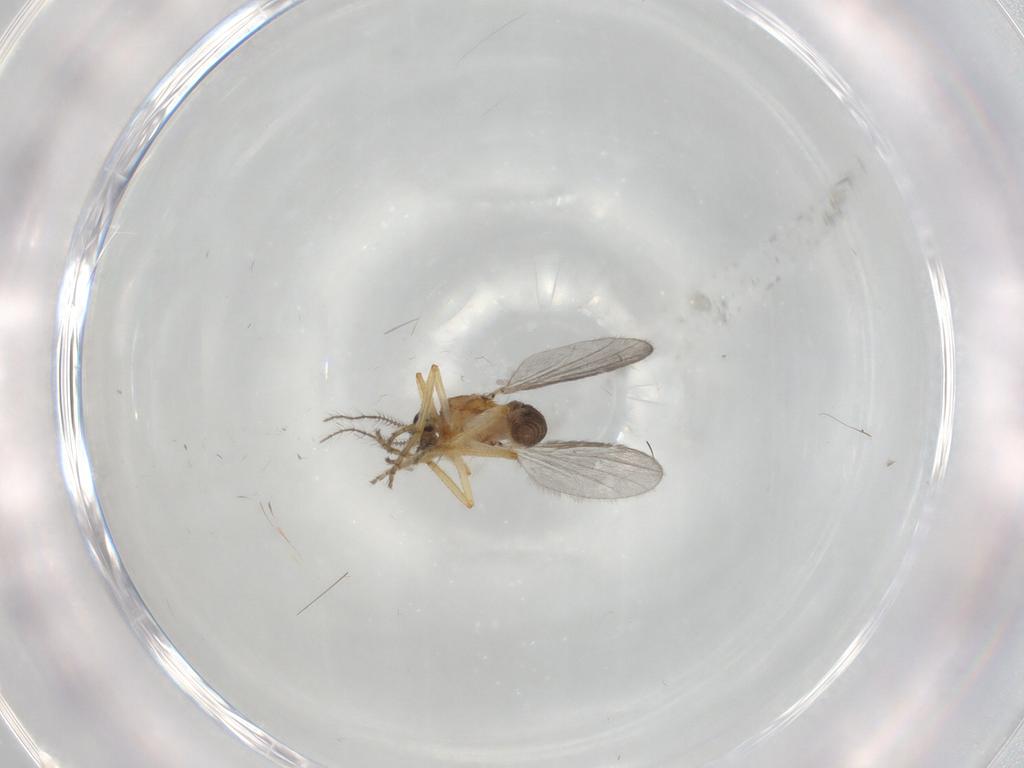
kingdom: Animalia
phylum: Arthropoda
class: Insecta
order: Diptera
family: Ceratopogonidae
